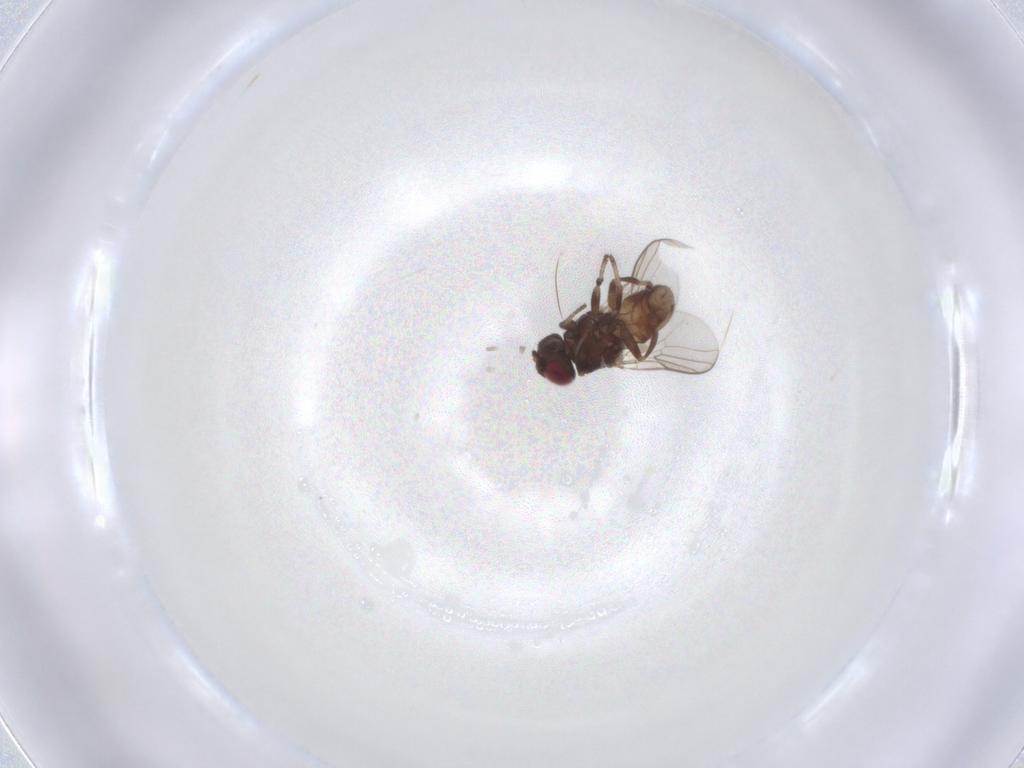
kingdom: Animalia
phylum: Arthropoda
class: Insecta
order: Diptera
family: Chloropidae
